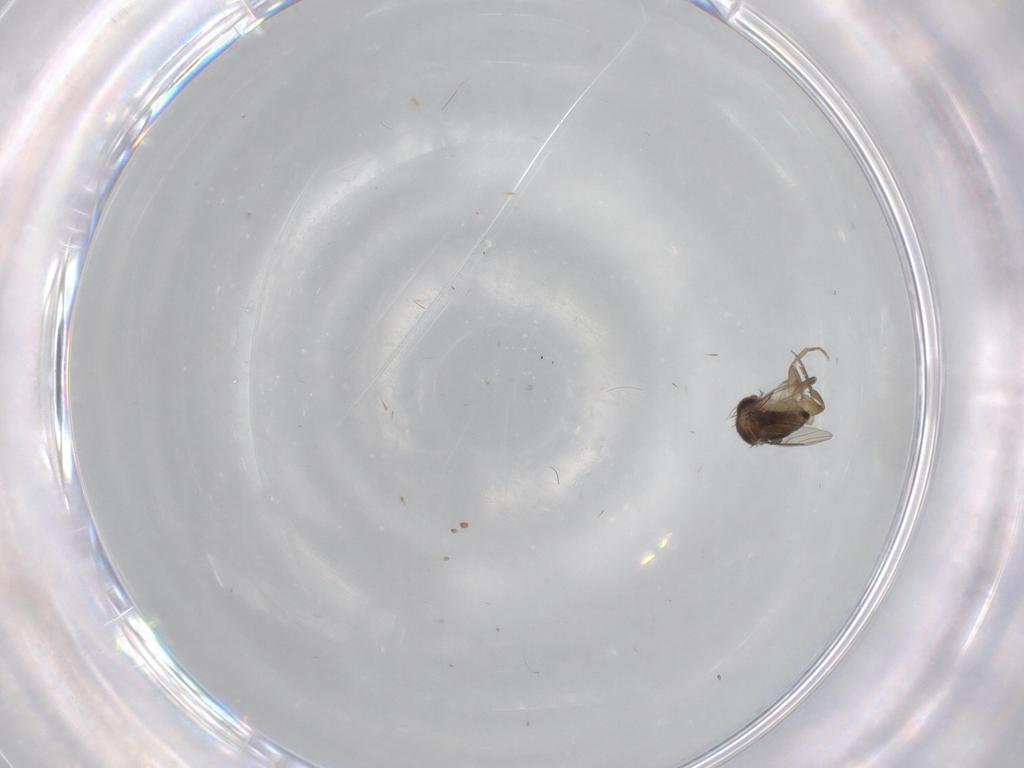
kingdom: Animalia
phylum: Arthropoda
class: Insecta
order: Diptera
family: Phoridae
